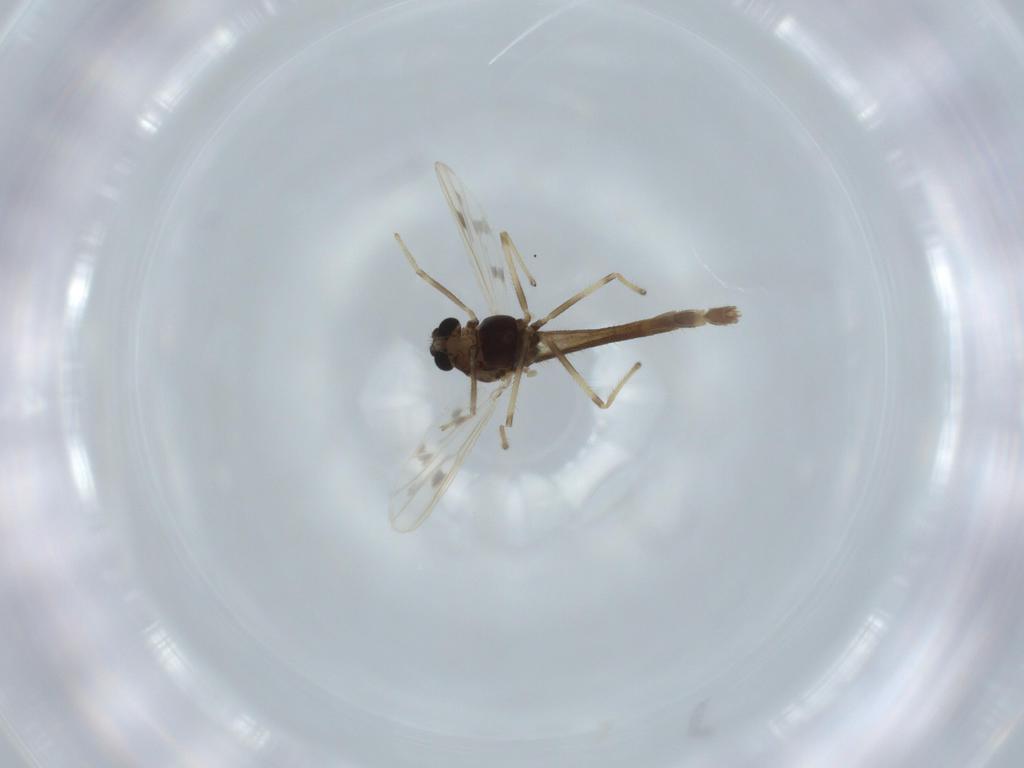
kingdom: Animalia
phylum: Arthropoda
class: Insecta
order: Diptera
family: Chironomidae
